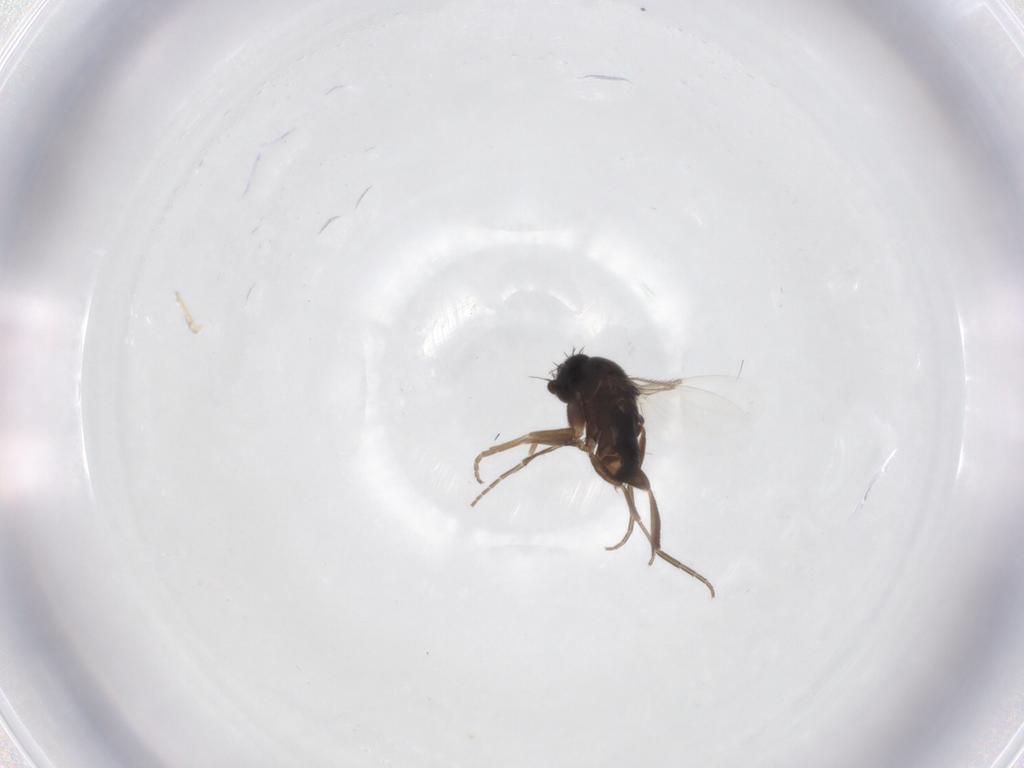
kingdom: Animalia
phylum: Arthropoda
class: Insecta
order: Diptera
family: Phoridae
